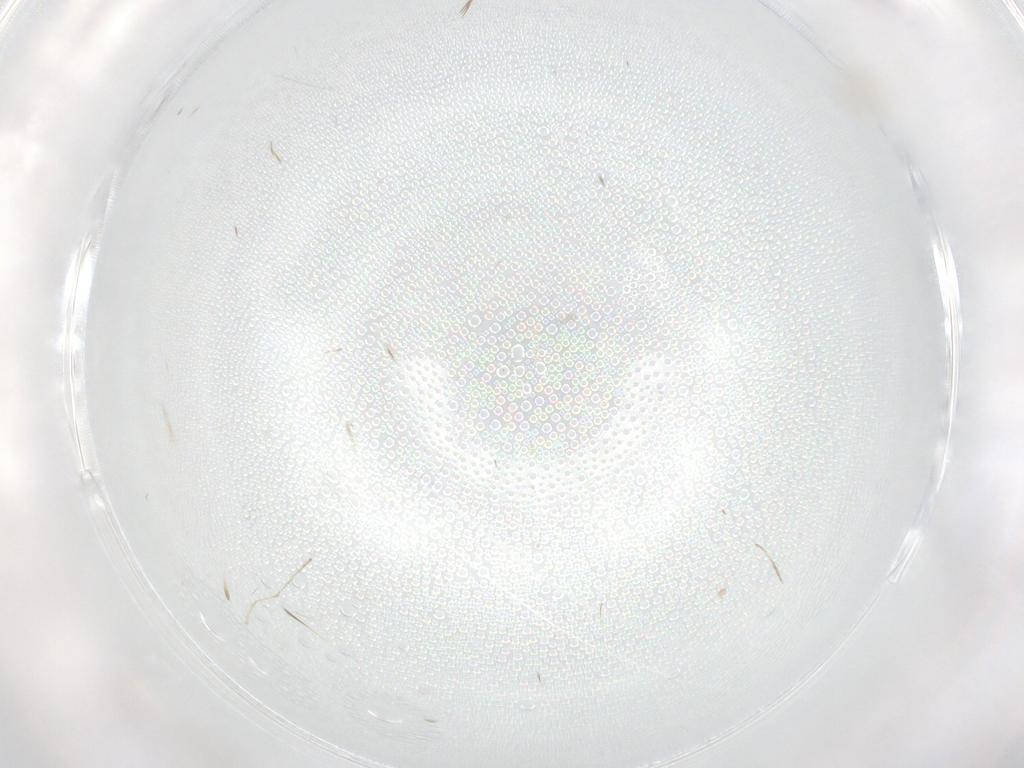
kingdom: Animalia
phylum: Arthropoda
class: Insecta
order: Diptera
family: Cecidomyiidae
